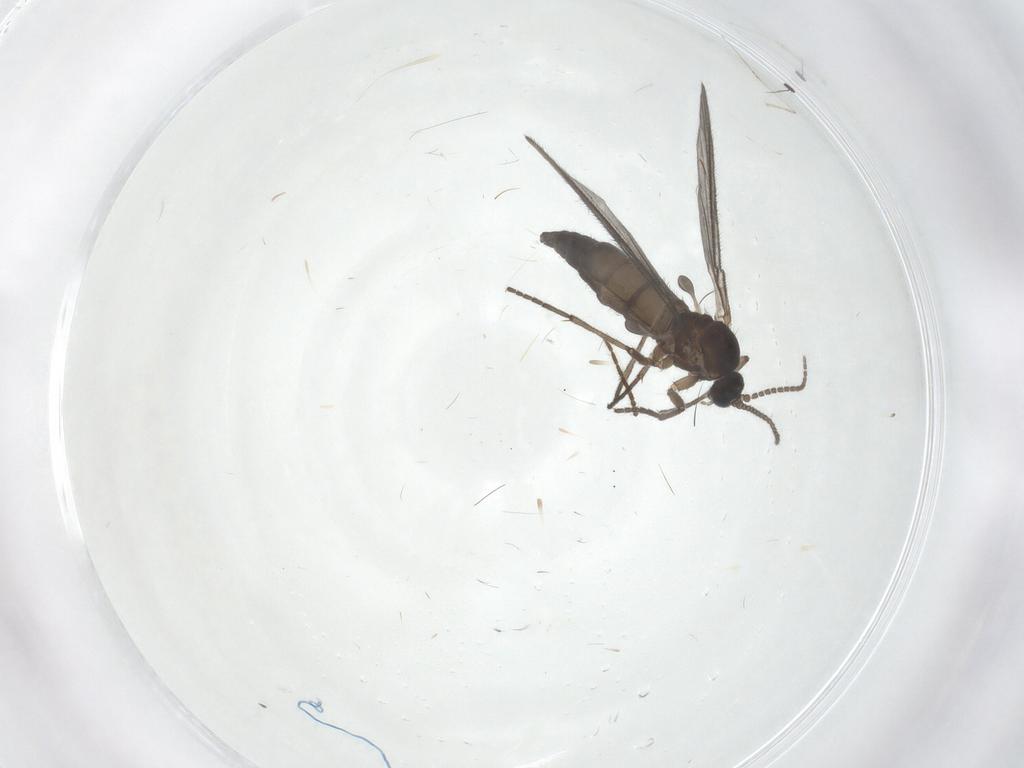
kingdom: Animalia
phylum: Arthropoda
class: Insecta
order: Diptera
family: Sciaridae
